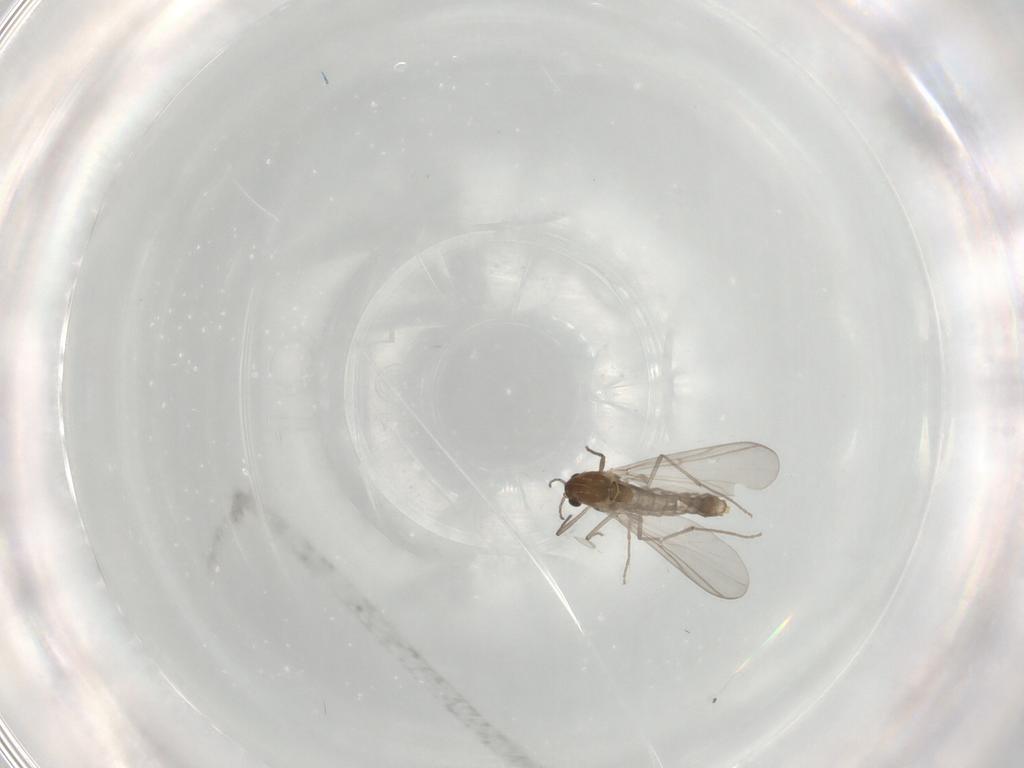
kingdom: Animalia
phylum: Arthropoda
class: Insecta
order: Diptera
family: Chironomidae
